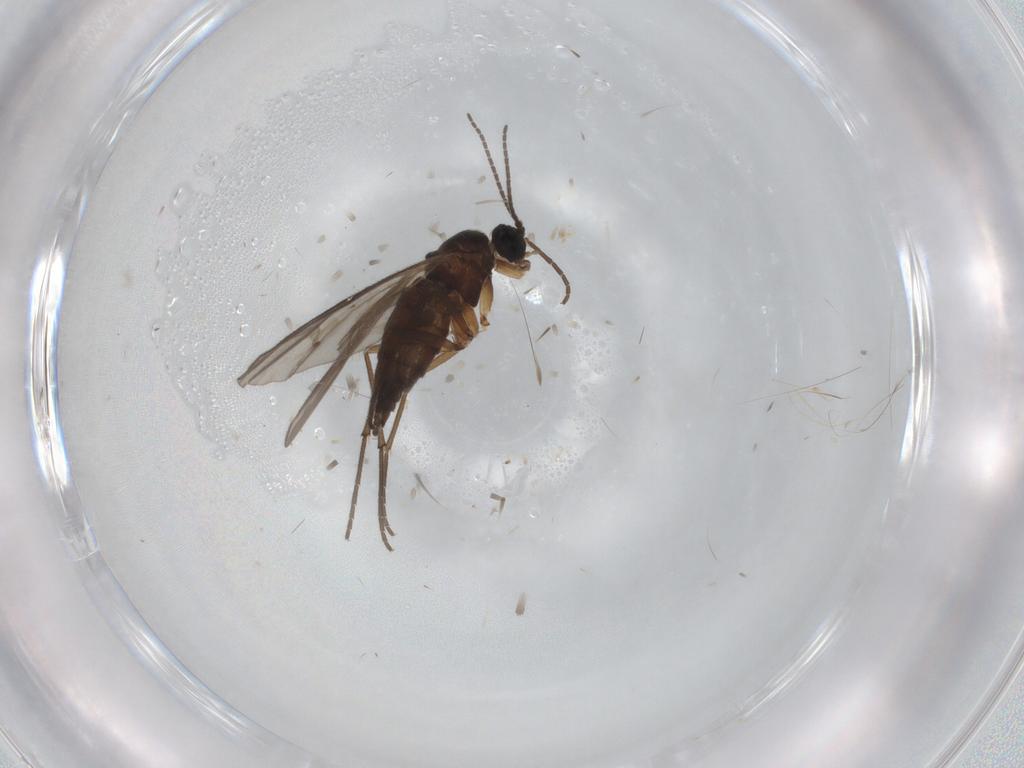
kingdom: Animalia
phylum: Arthropoda
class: Insecta
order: Diptera
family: Sciaridae
